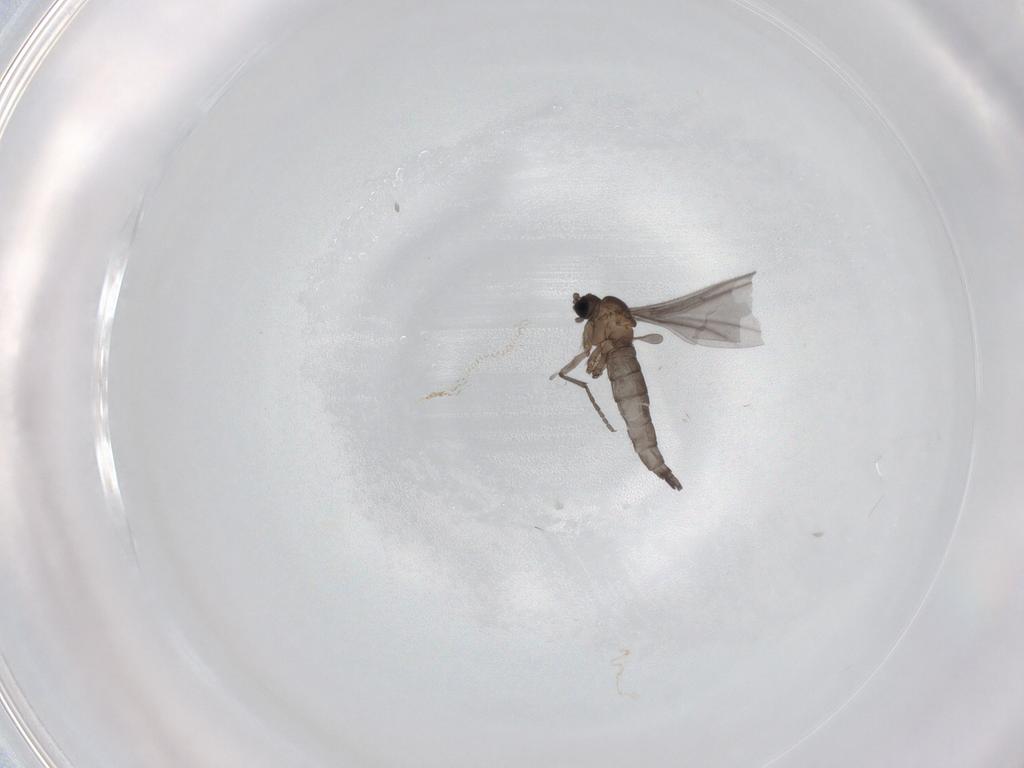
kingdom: Animalia
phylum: Arthropoda
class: Insecta
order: Diptera
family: Sciaridae
